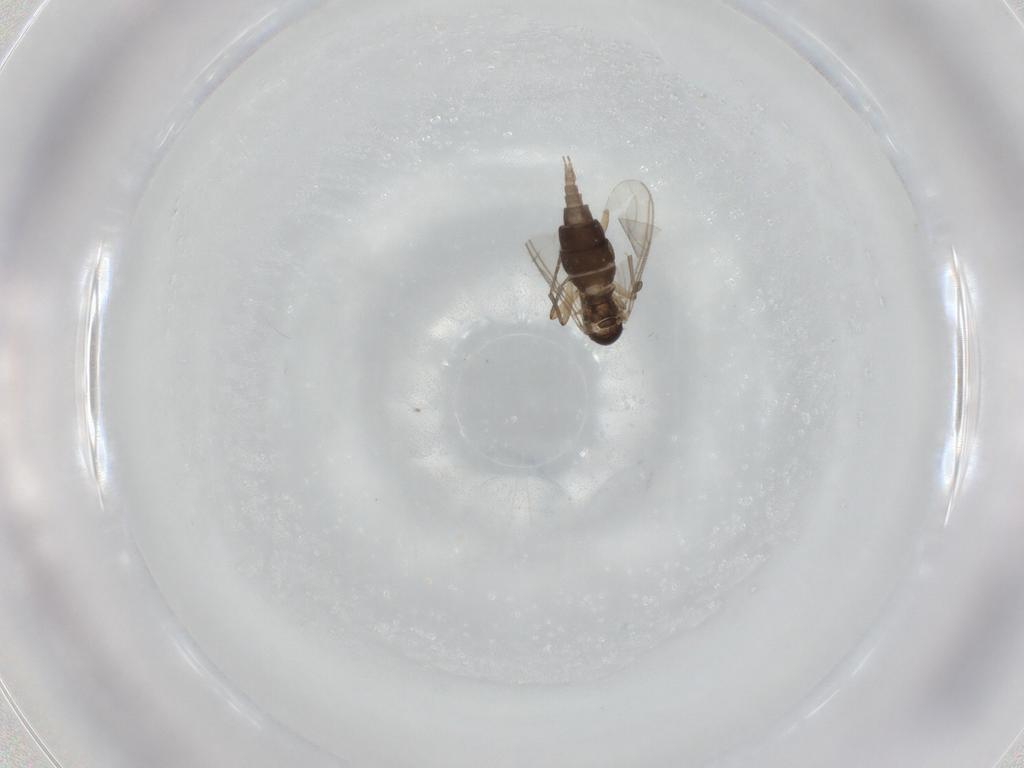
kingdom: Animalia
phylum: Arthropoda
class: Insecta
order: Diptera
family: Sciaridae
